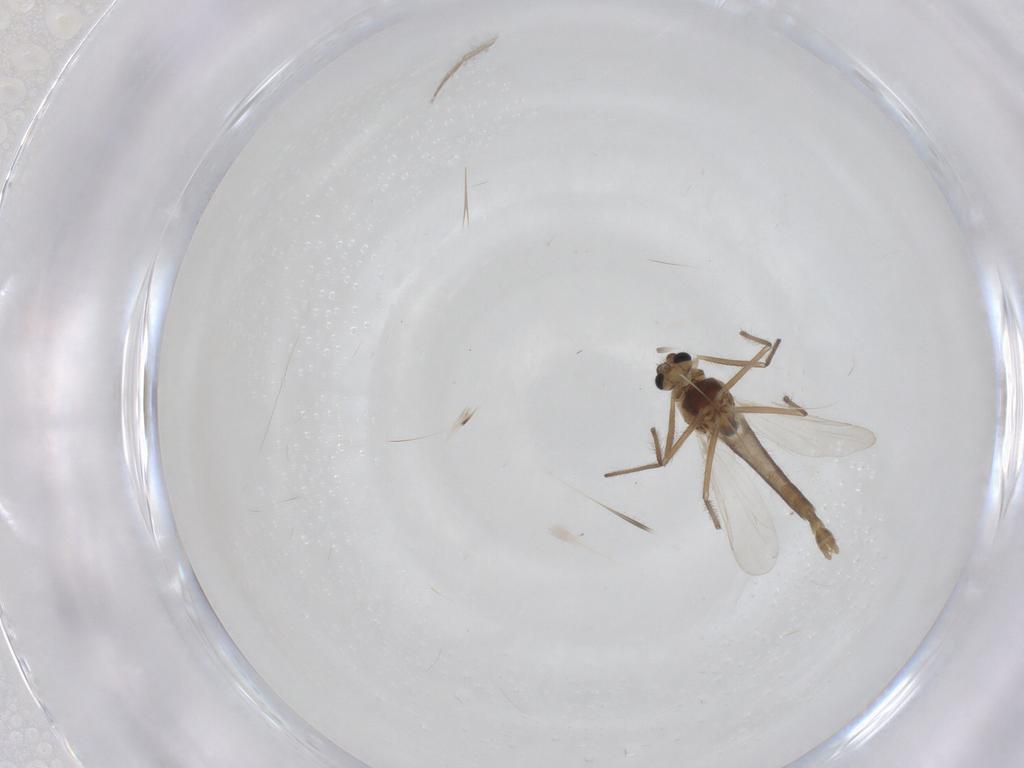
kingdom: Animalia
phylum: Arthropoda
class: Insecta
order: Diptera
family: Chironomidae
